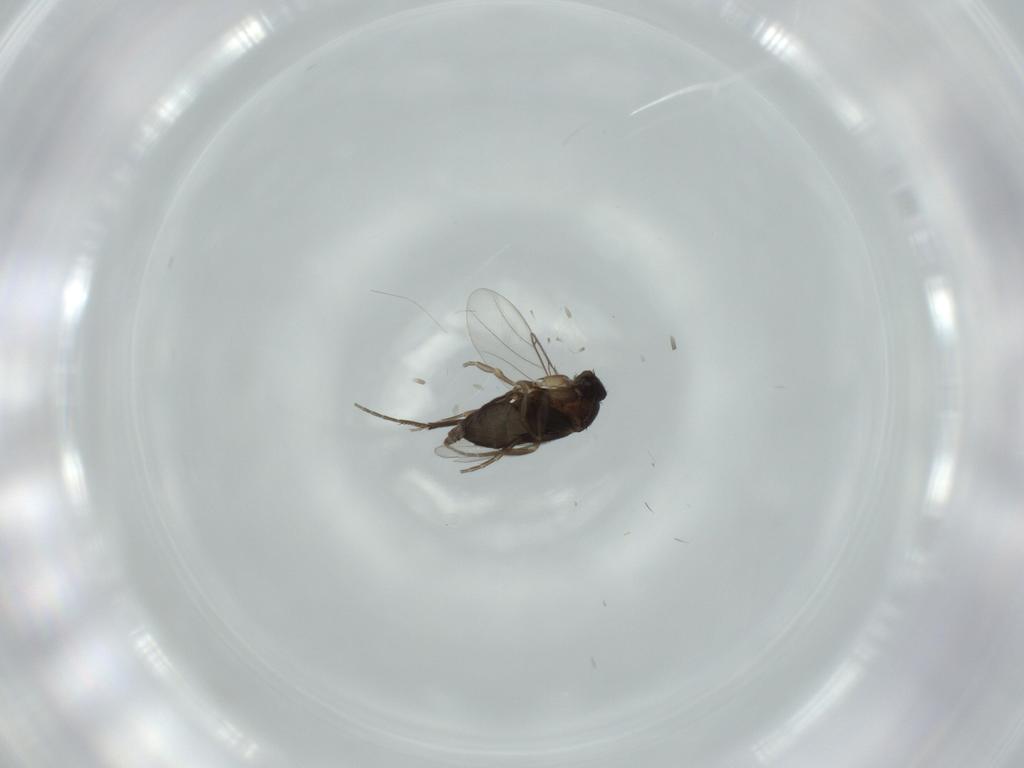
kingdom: Animalia
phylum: Arthropoda
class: Insecta
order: Diptera
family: Phoridae
